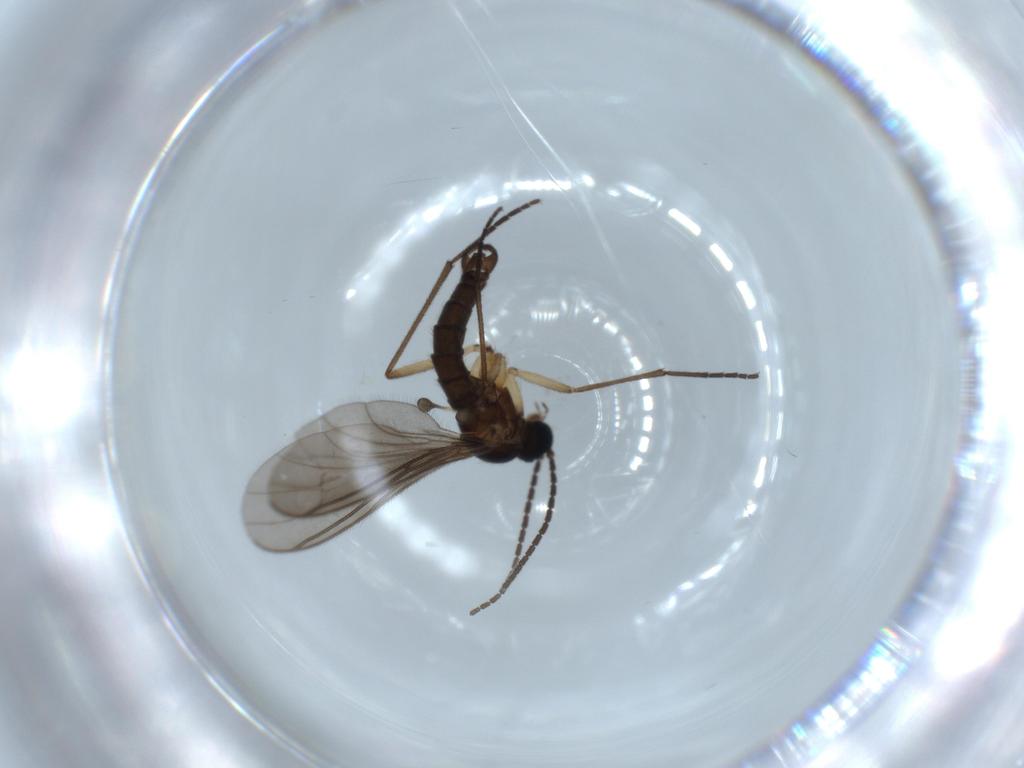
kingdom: Animalia
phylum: Arthropoda
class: Insecta
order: Diptera
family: Sciaridae
